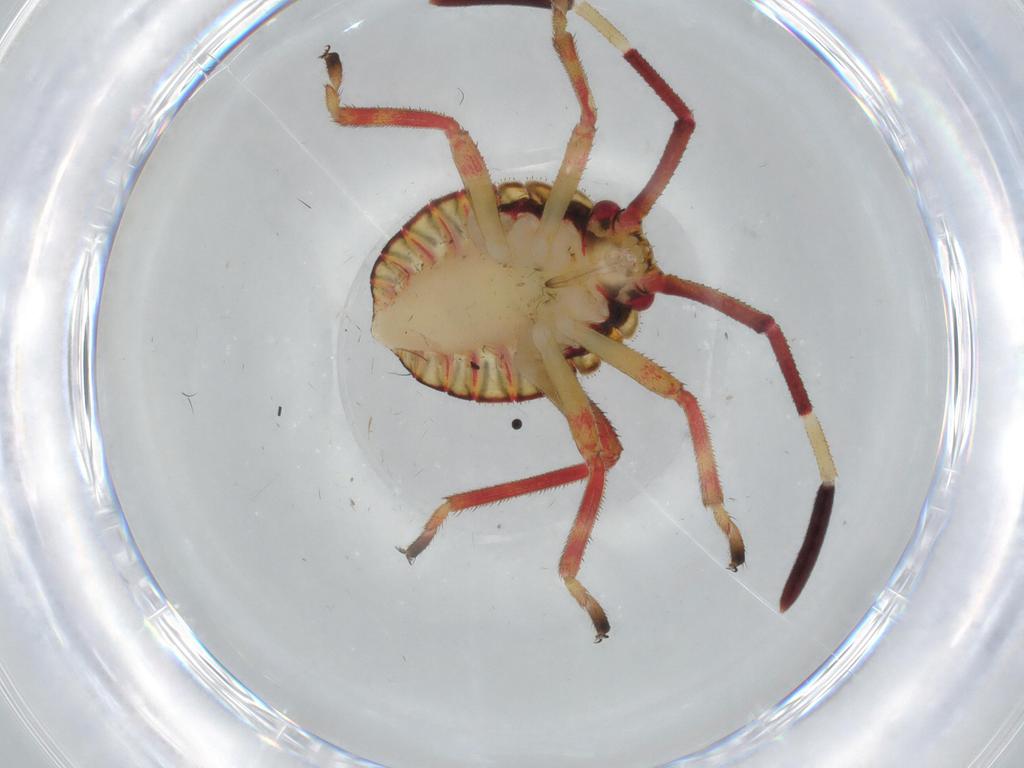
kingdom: Animalia
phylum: Arthropoda
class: Insecta
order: Hemiptera
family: Coreidae
